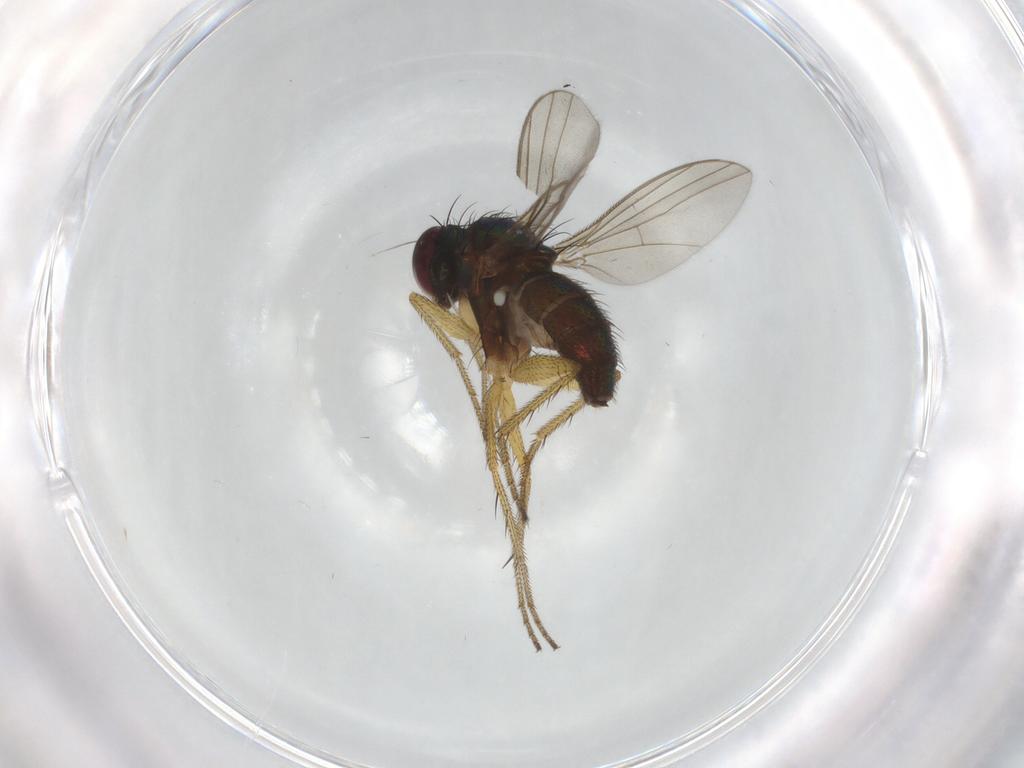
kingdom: Animalia
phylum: Arthropoda
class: Insecta
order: Diptera
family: Dolichopodidae
